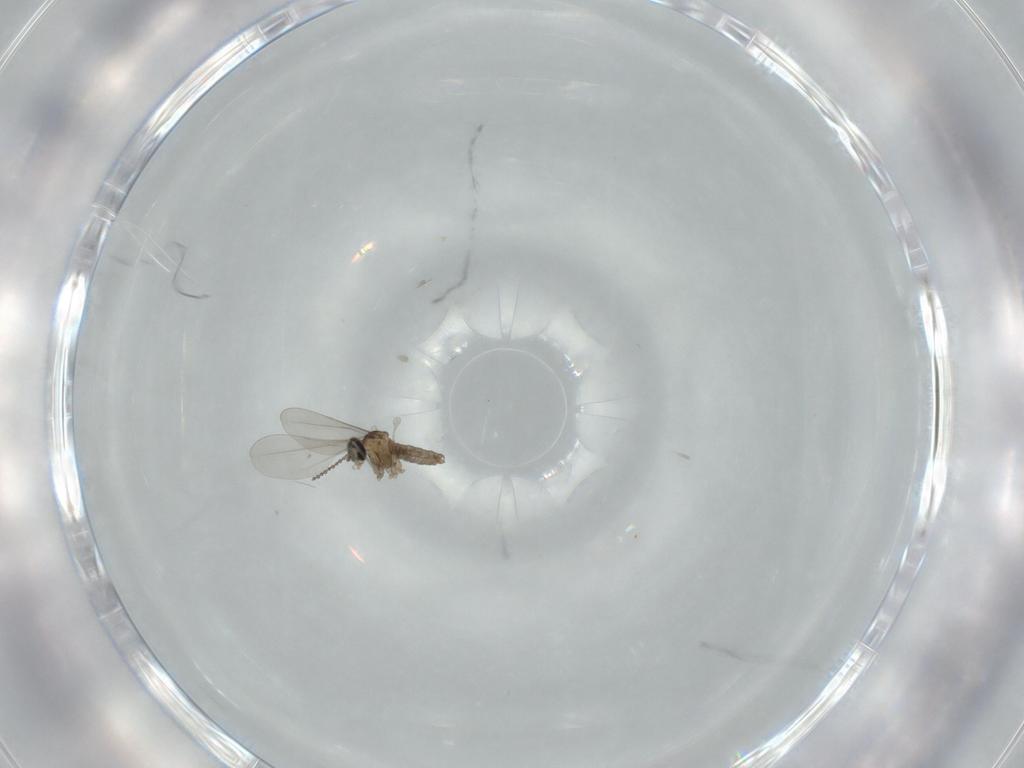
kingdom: Animalia
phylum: Arthropoda
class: Insecta
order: Diptera
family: Cecidomyiidae
